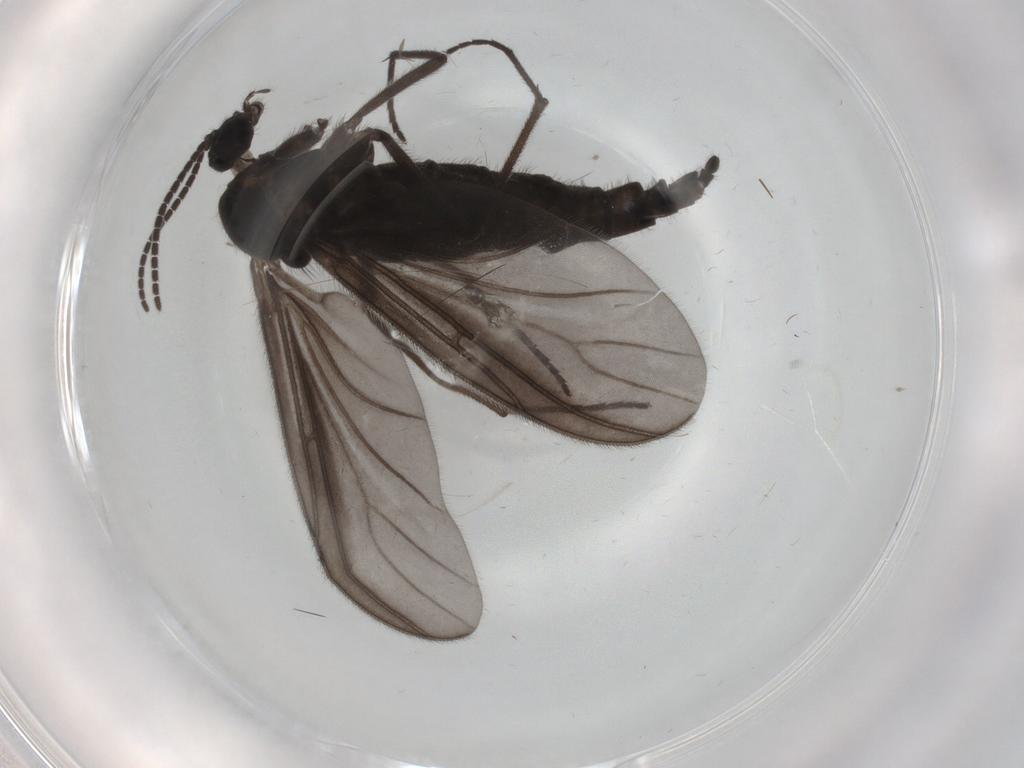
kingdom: Animalia
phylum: Arthropoda
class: Insecta
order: Diptera
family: Sciaridae
